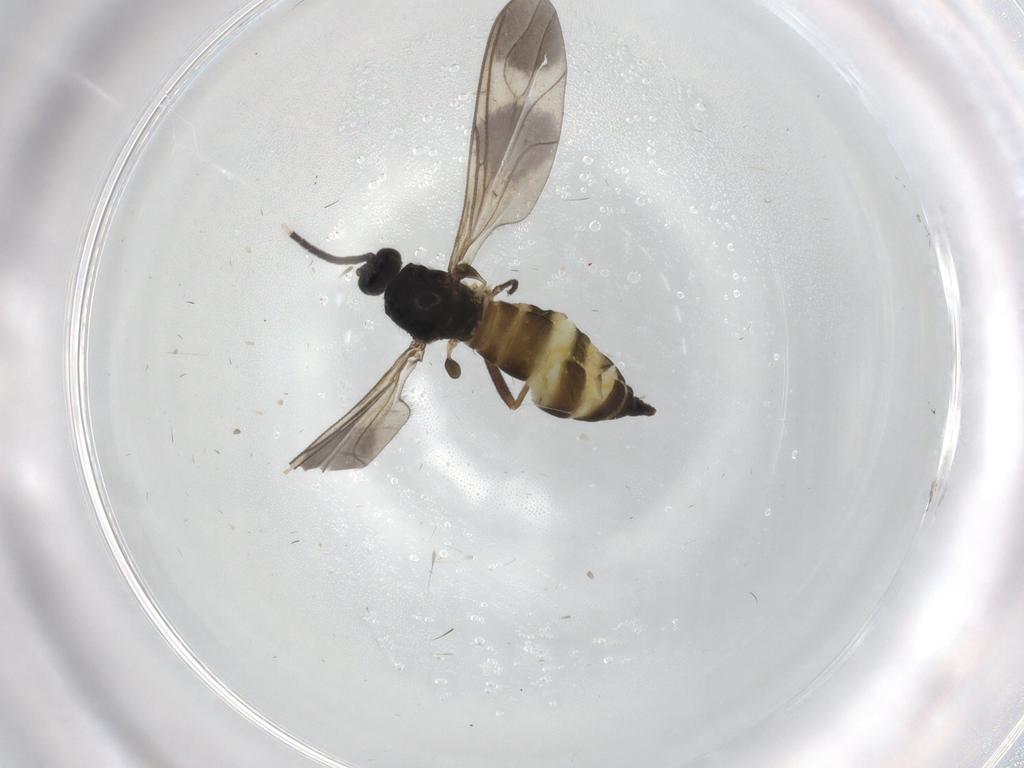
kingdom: Animalia
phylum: Arthropoda
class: Insecta
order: Diptera
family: Sciaridae
